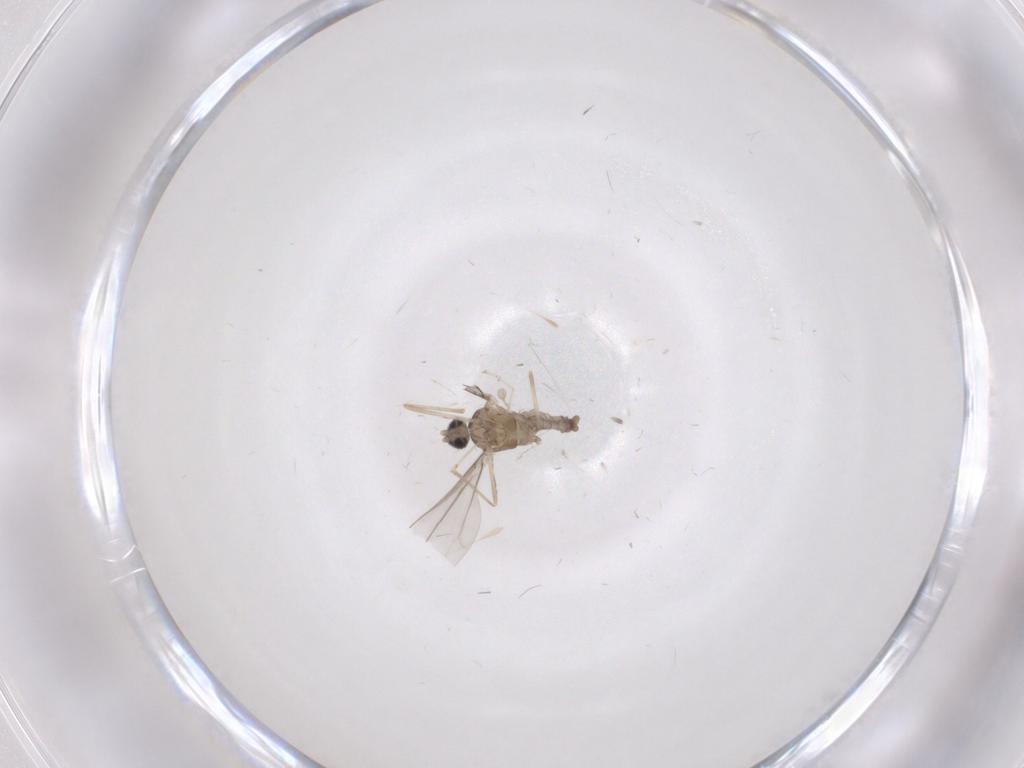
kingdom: Animalia
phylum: Arthropoda
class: Insecta
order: Diptera
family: Cecidomyiidae
